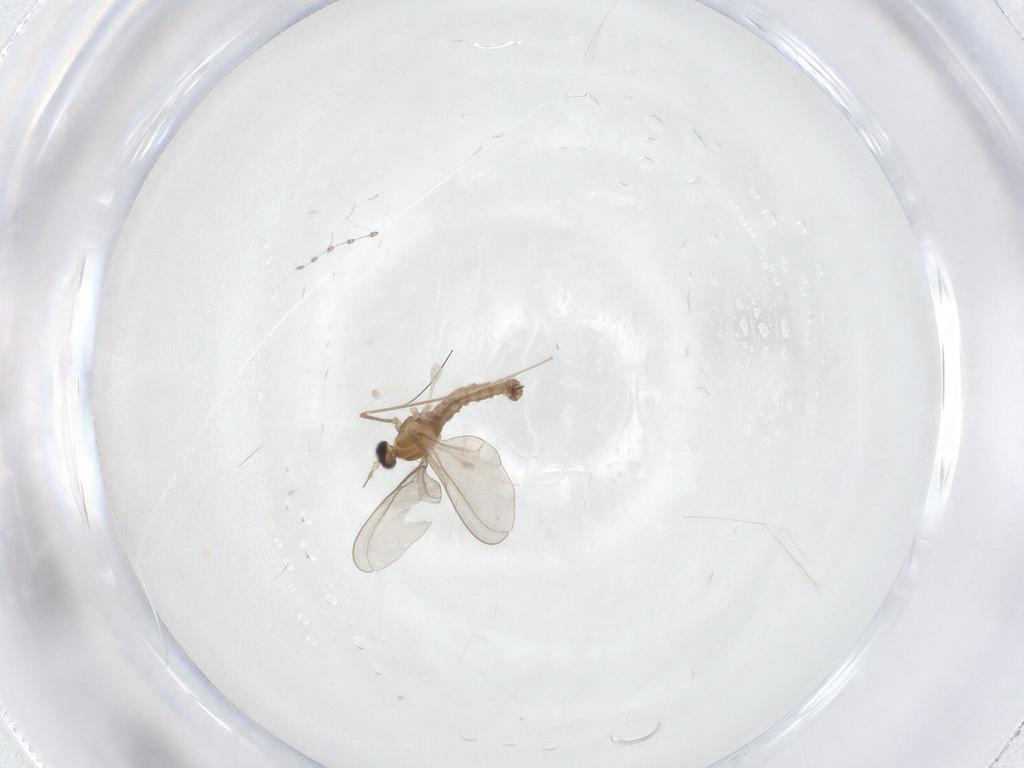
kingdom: Animalia
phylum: Arthropoda
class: Insecta
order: Diptera
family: Cecidomyiidae
